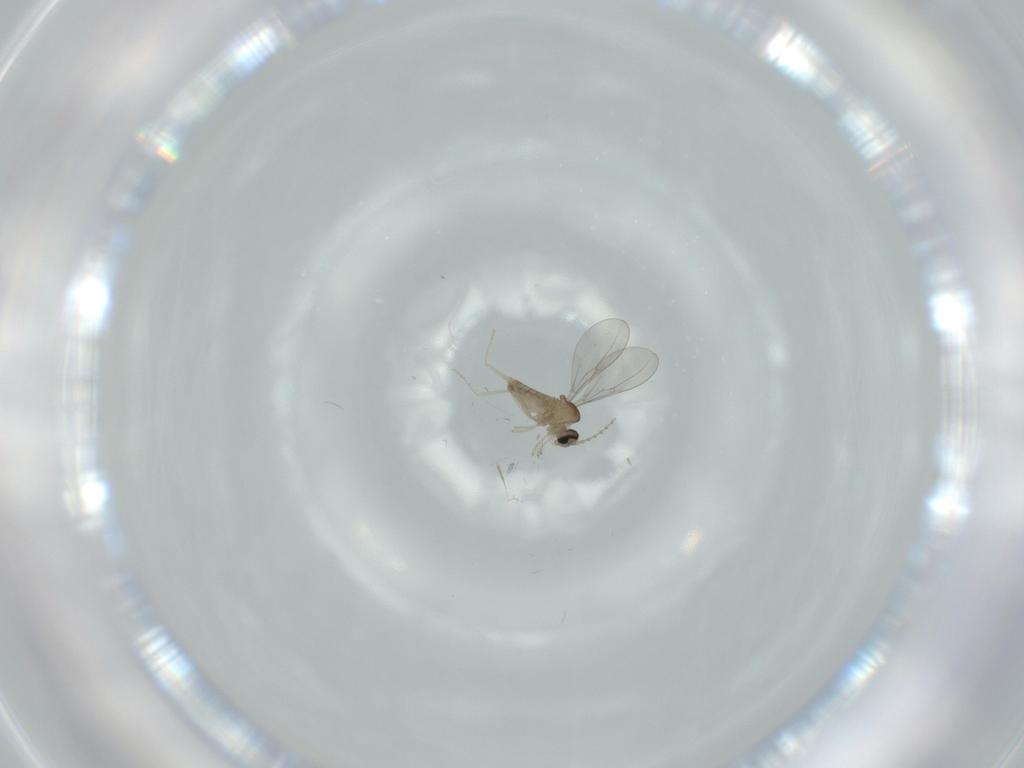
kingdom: Animalia
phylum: Arthropoda
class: Insecta
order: Diptera
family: Cecidomyiidae
